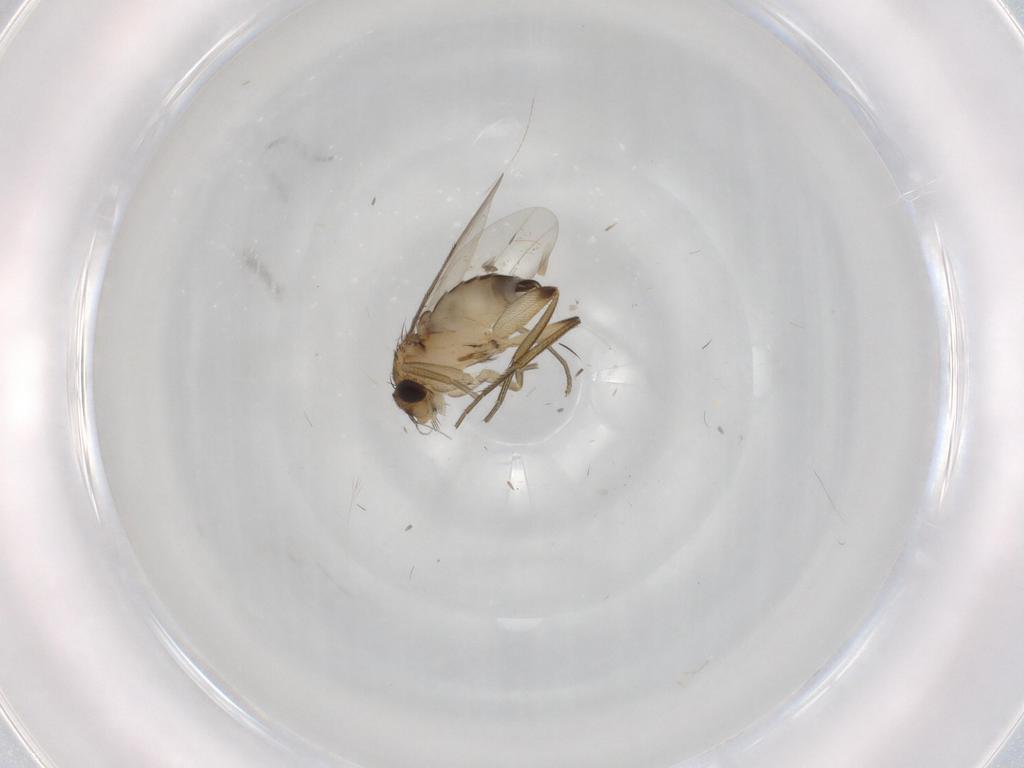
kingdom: Animalia
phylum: Arthropoda
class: Insecta
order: Diptera
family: Phoridae
